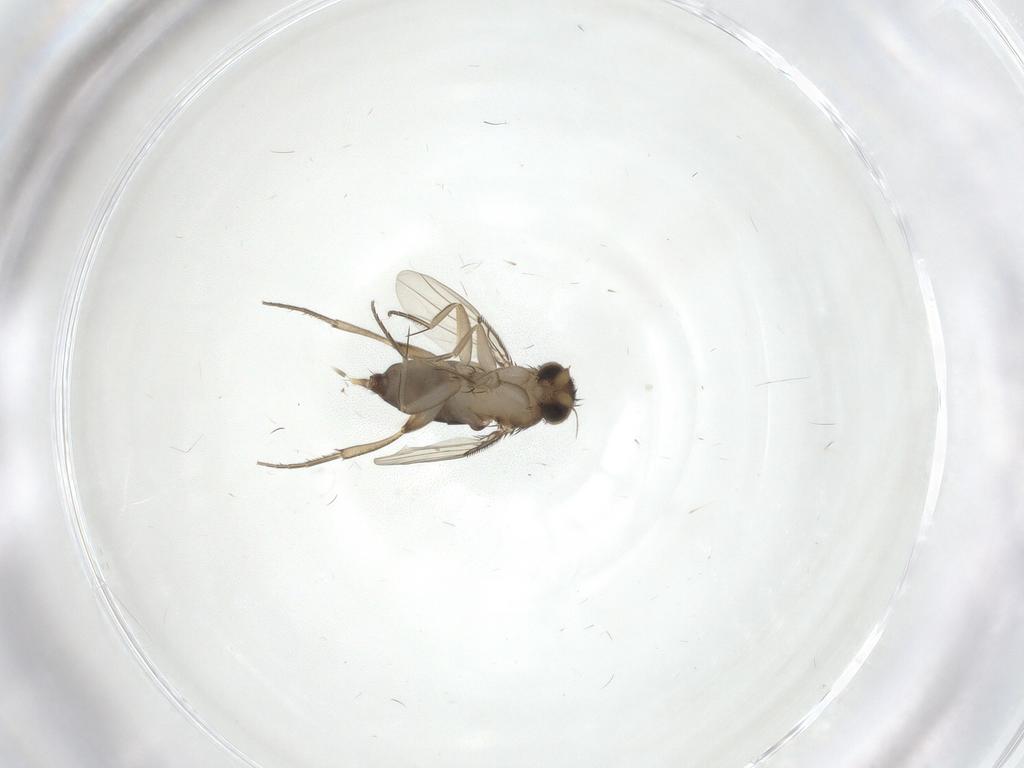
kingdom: Animalia
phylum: Arthropoda
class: Insecta
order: Diptera
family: Phoridae
